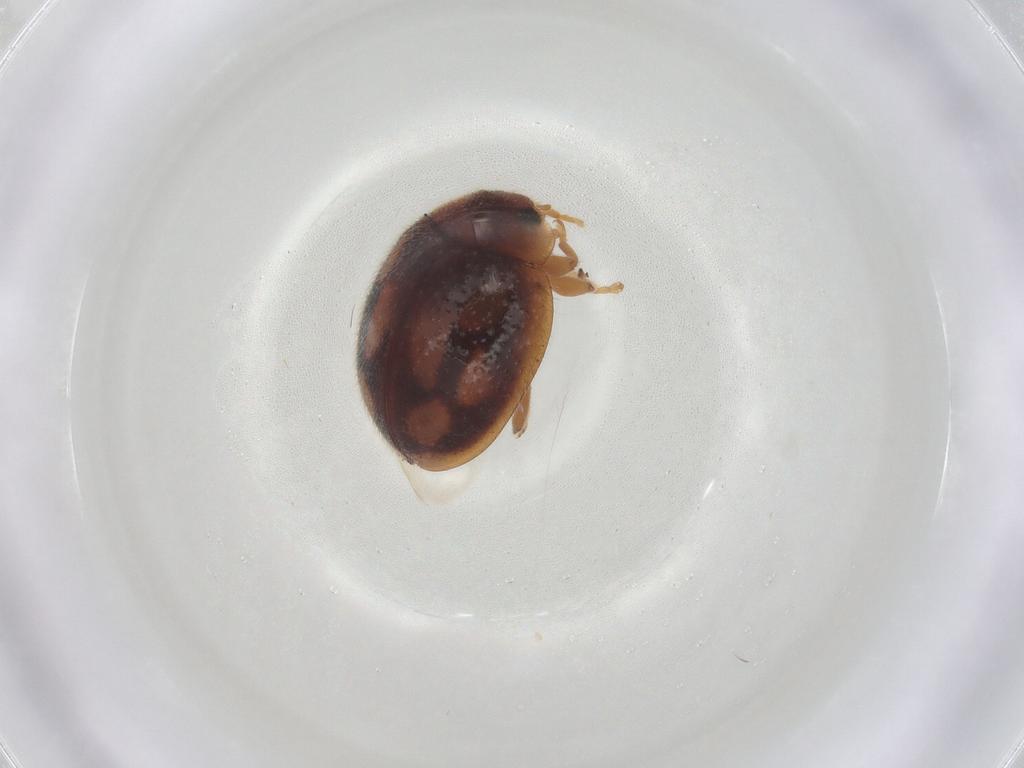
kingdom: Animalia
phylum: Arthropoda
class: Insecta
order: Coleoptera
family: Coccinellidae
